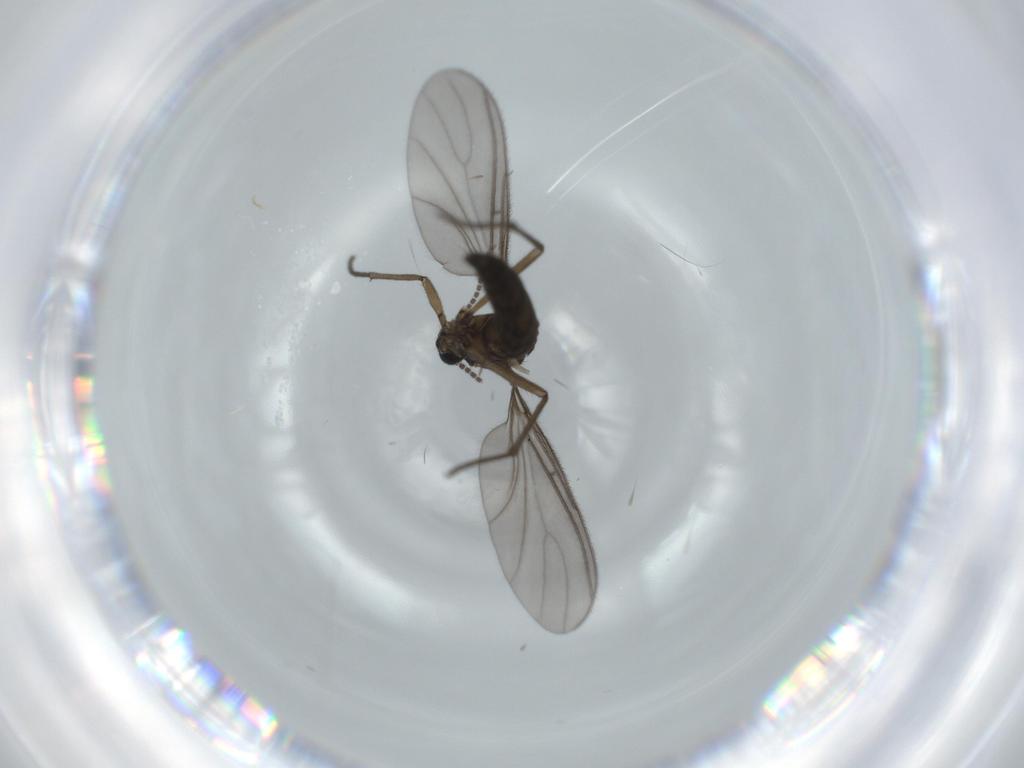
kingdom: Animalia
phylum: Arthropoda
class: Insecta
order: Diptera
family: Sciaridae
